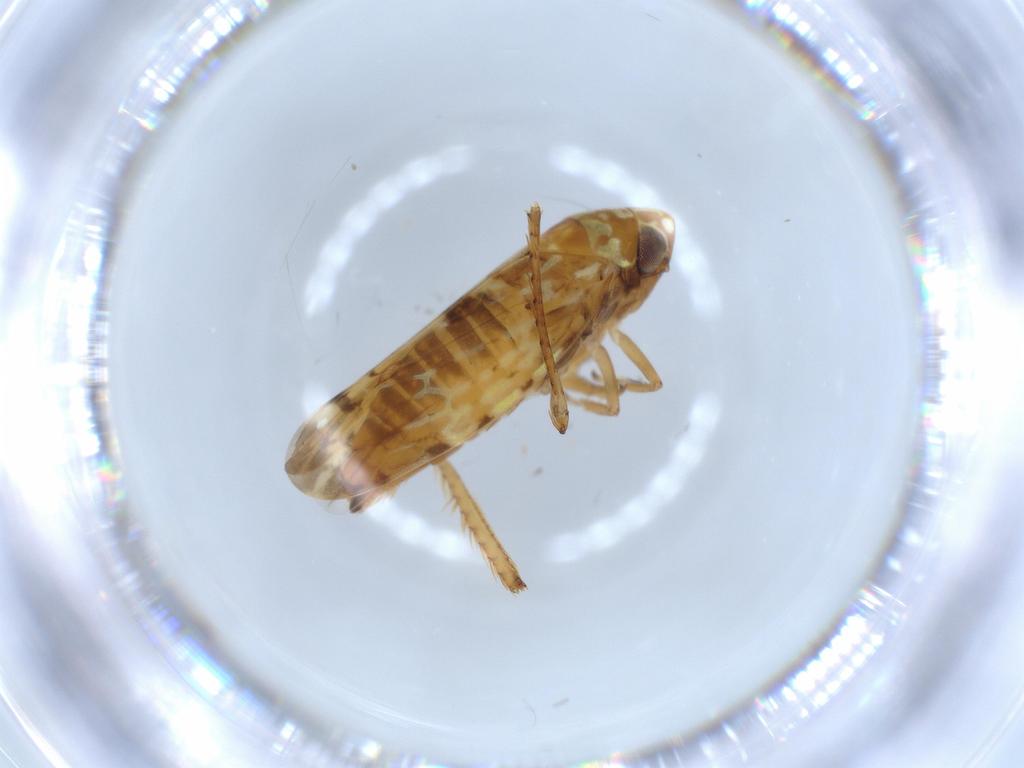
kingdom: Animalia
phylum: Arthropoda
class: Insecta
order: Hemiptera
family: Cicadellidae
